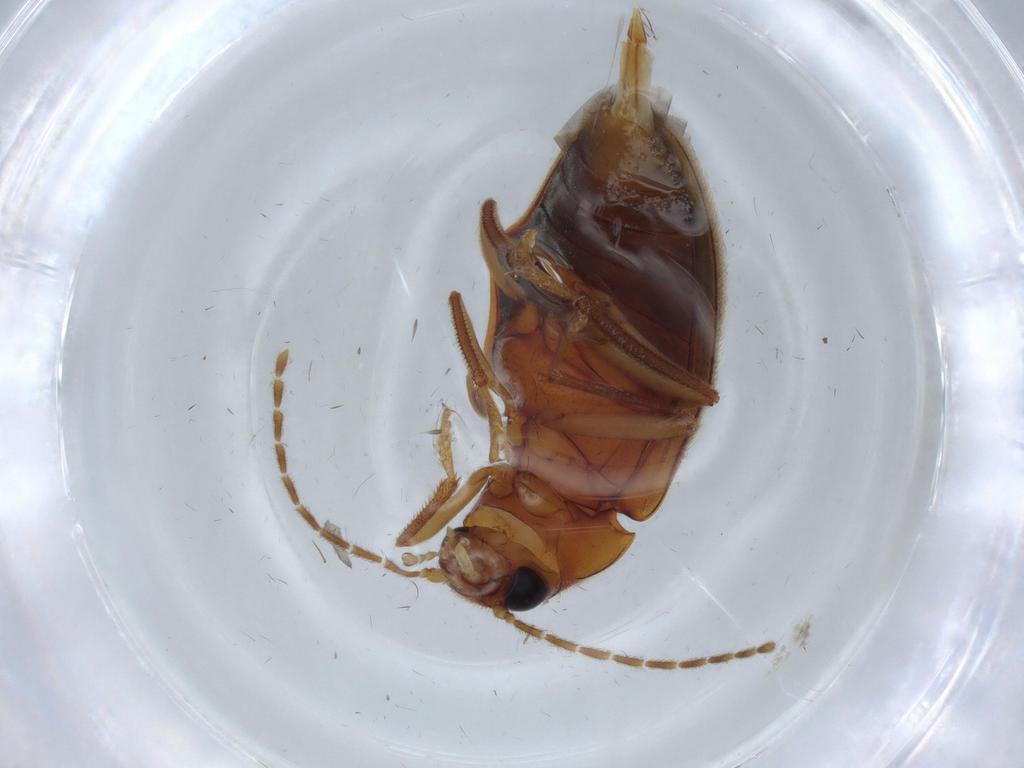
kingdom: Animalia
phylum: Arthropoda
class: Insecta
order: Coleoptera
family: Ptilodactylidae
